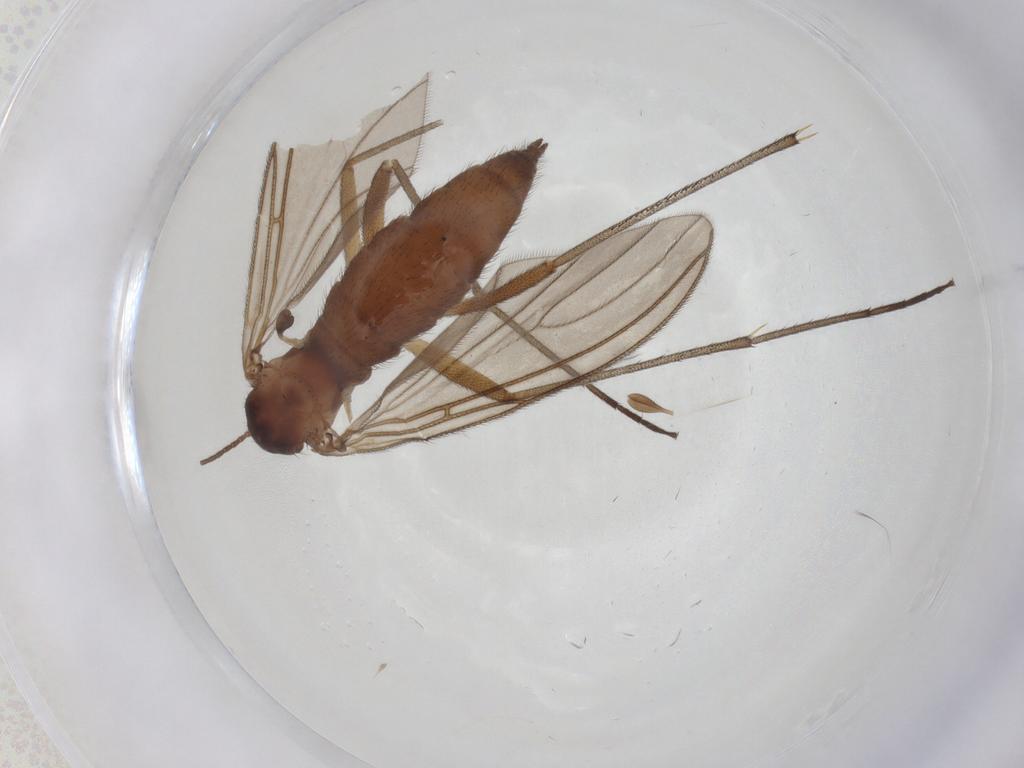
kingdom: Animalia
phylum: Arthropoda
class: Insecta
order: Diptera
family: Sciaridae
